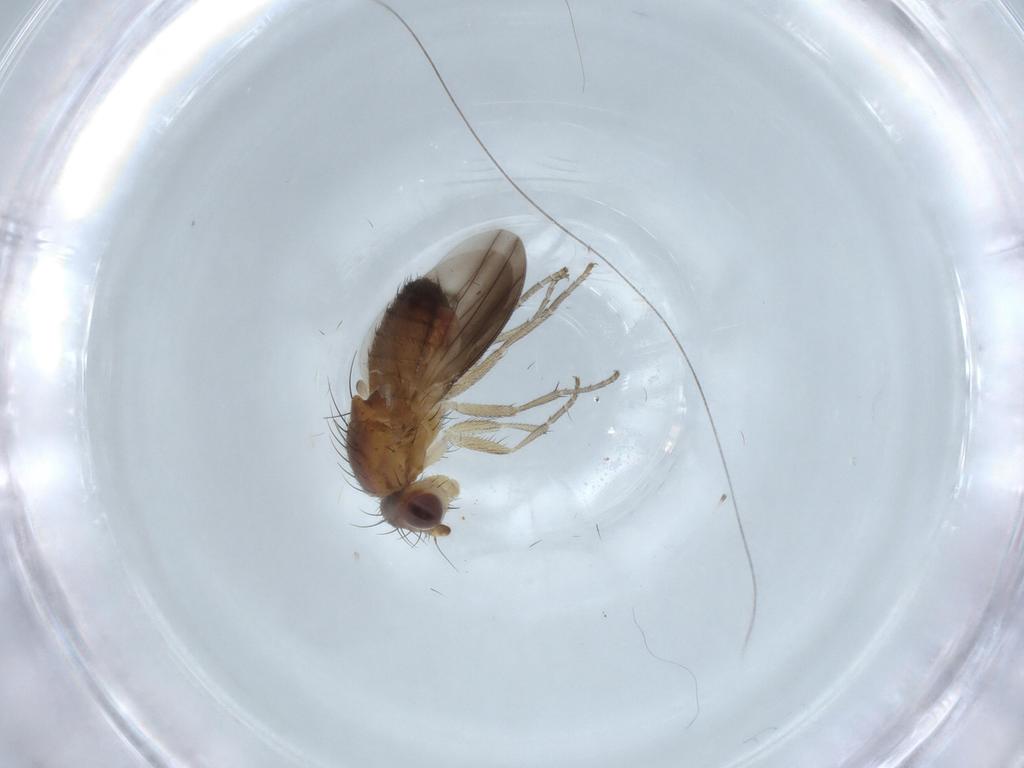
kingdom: Animalia
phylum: Arthropoda
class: Insecta
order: Diptera
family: Heleomyzidae
